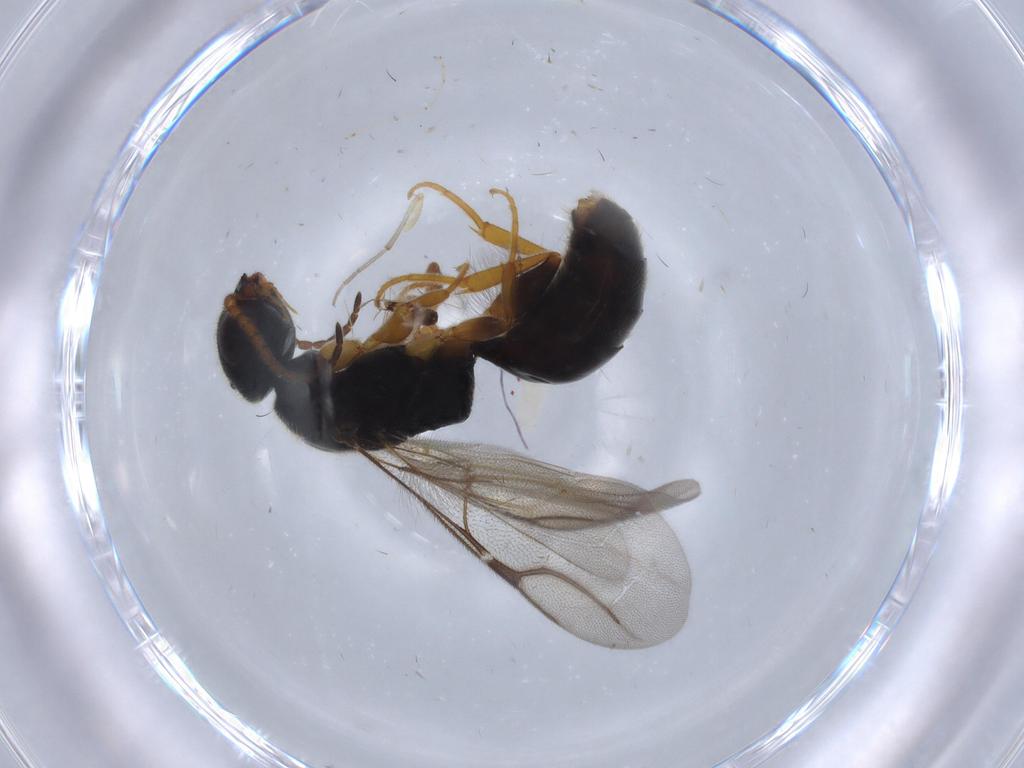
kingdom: Animalia
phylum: Arthropoda
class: Insecta
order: Hymenoptera
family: Bethylidae
